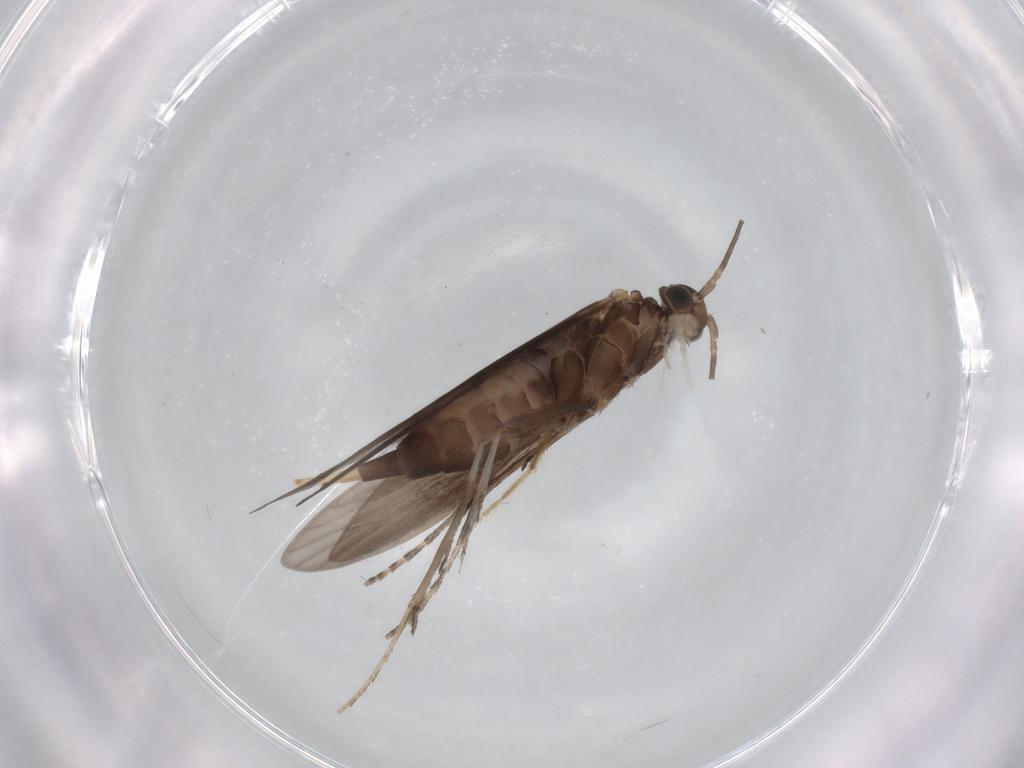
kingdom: Animalia
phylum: Arthropoda
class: Insecta
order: Trichoptera
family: Xiphocentronidae
